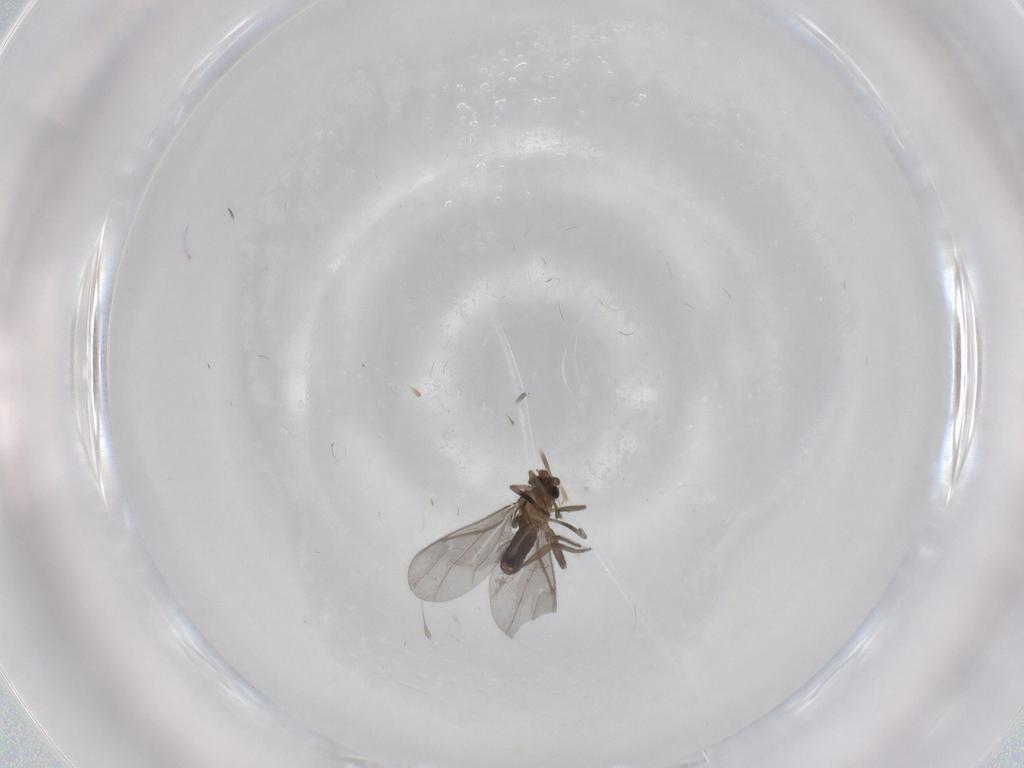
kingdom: Animalia
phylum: Arthropoda
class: Insecta
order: Diptera
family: Phoridae
